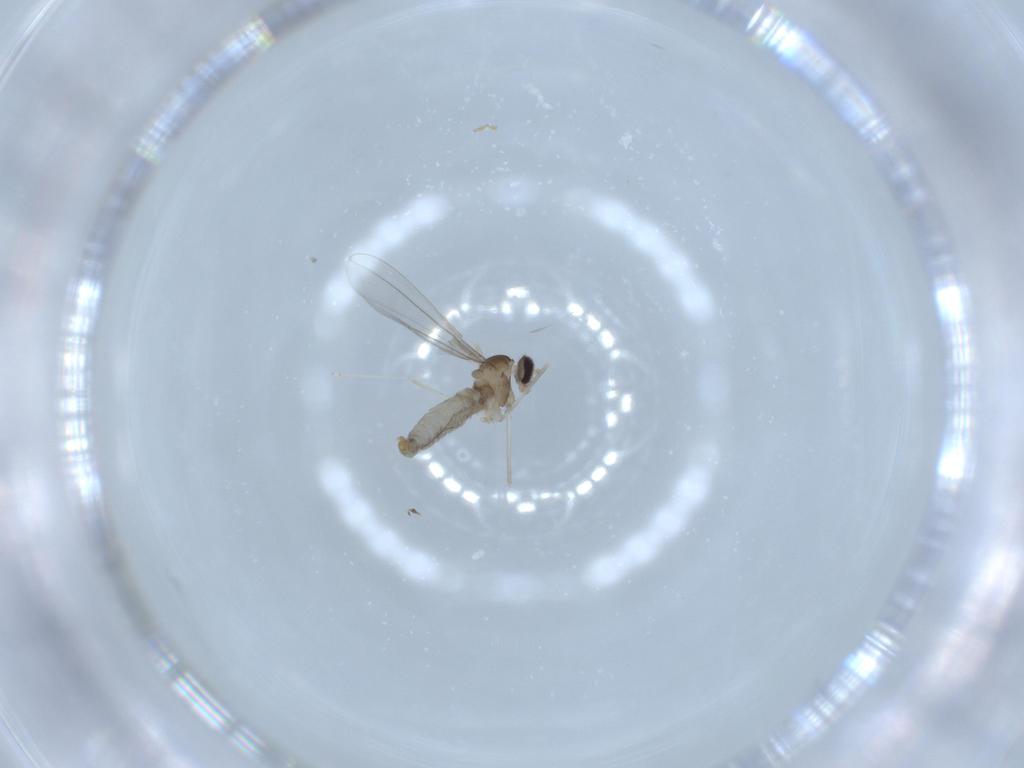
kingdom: Animalia
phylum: Arthropoda
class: Insecta
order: Diptera
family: Cecidomyiidae
